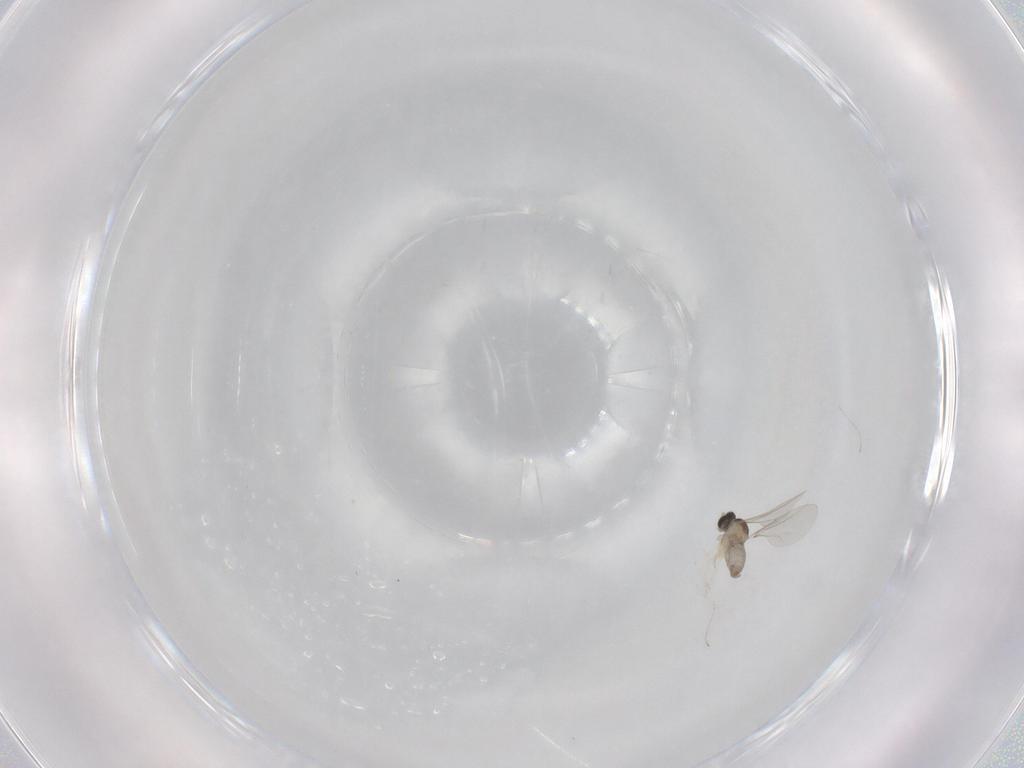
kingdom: Animalia
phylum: Arthropoda
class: Insecta
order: Diptera
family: Cecidomyiidae
